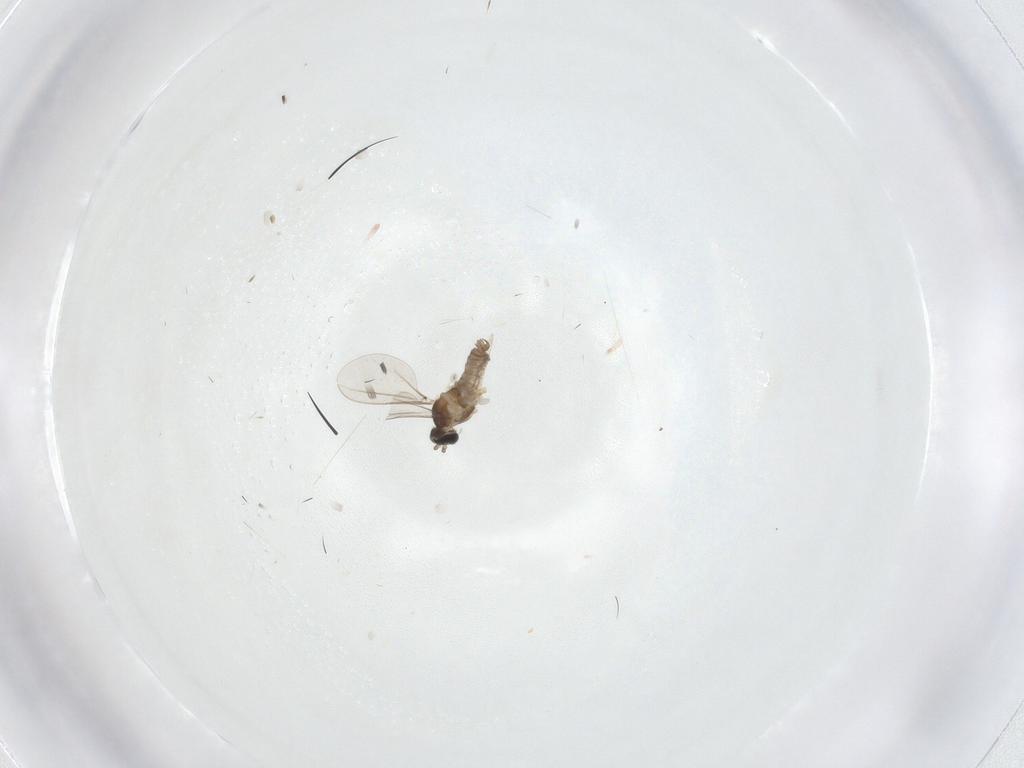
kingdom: Animalia
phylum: Arthropoda
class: Insecta
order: Diptera
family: Cecidomyiidae
